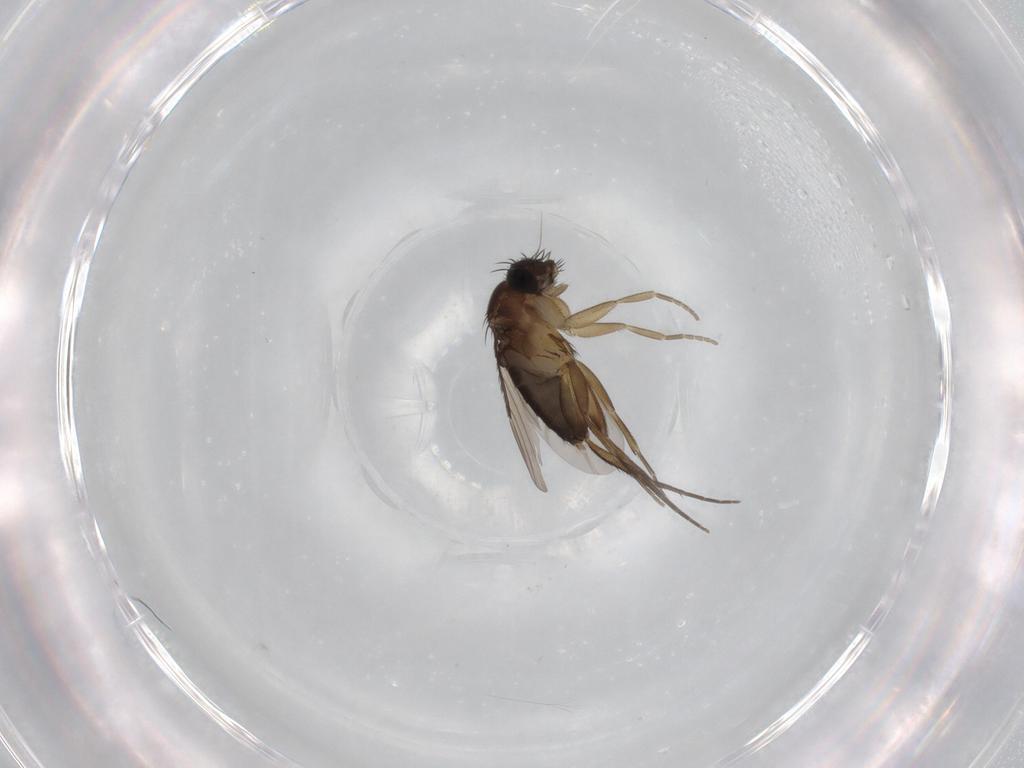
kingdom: Animalia
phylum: Arthropoda
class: Insecta
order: Diptera
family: Phoridae
